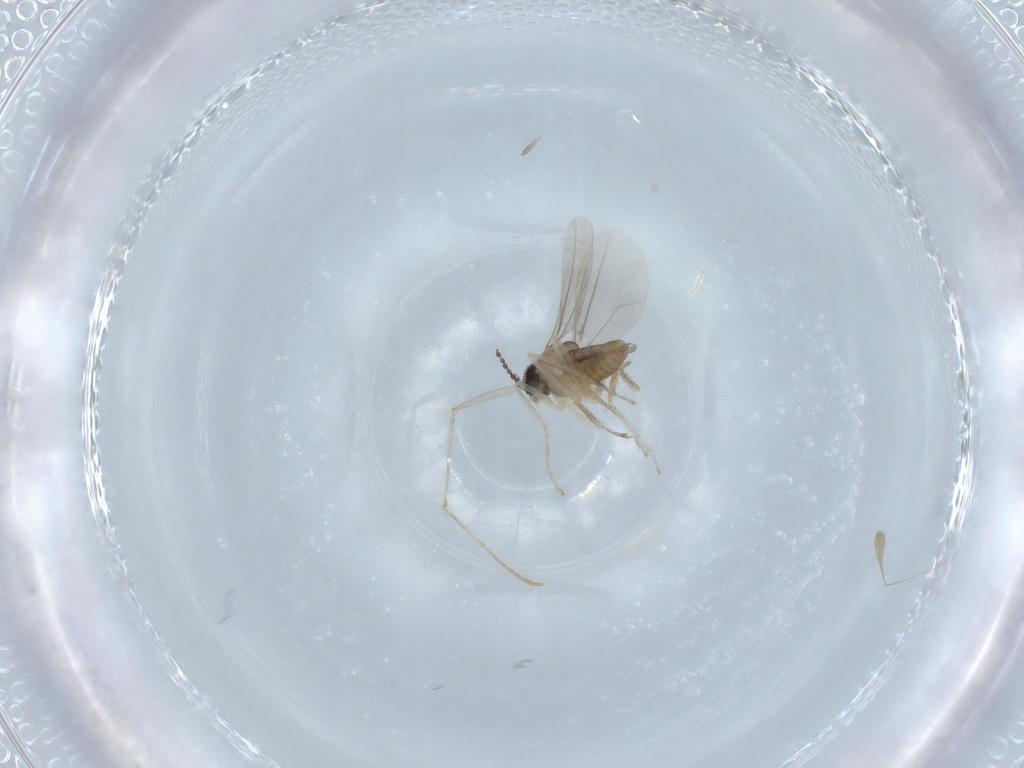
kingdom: Animalia
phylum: Arthropoda
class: Insecta
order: Diptera
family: Cecidomyiidae
